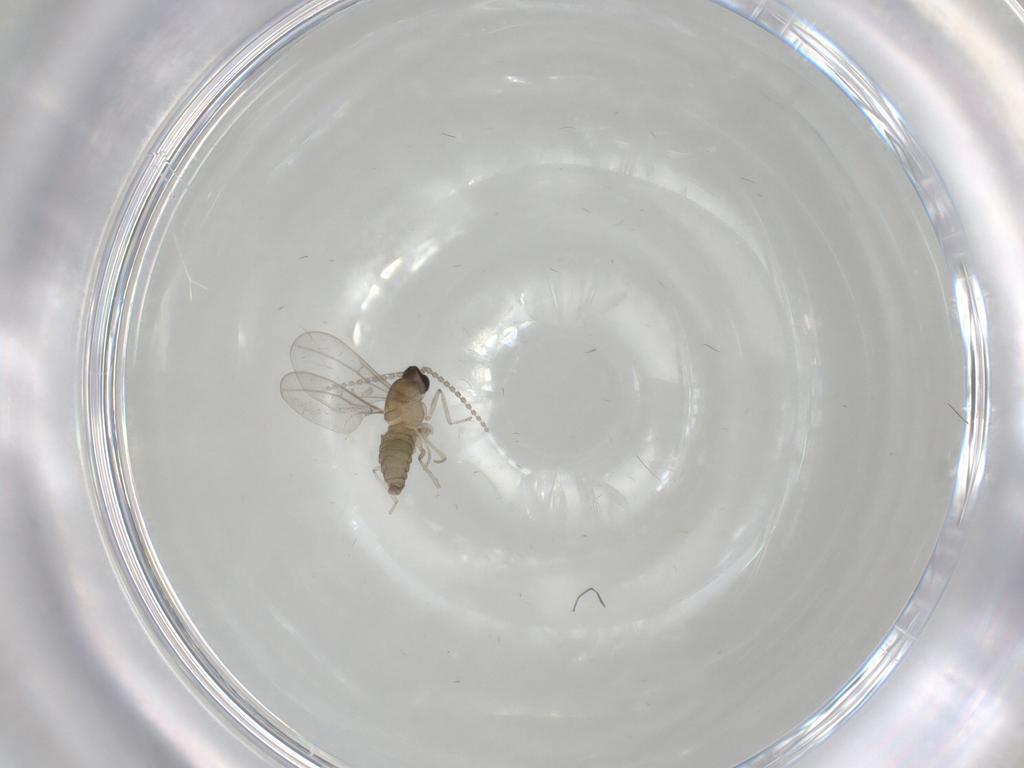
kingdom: Animalia
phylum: Arthropoda
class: Insecta
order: Diptera
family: Cecidomyiidae
